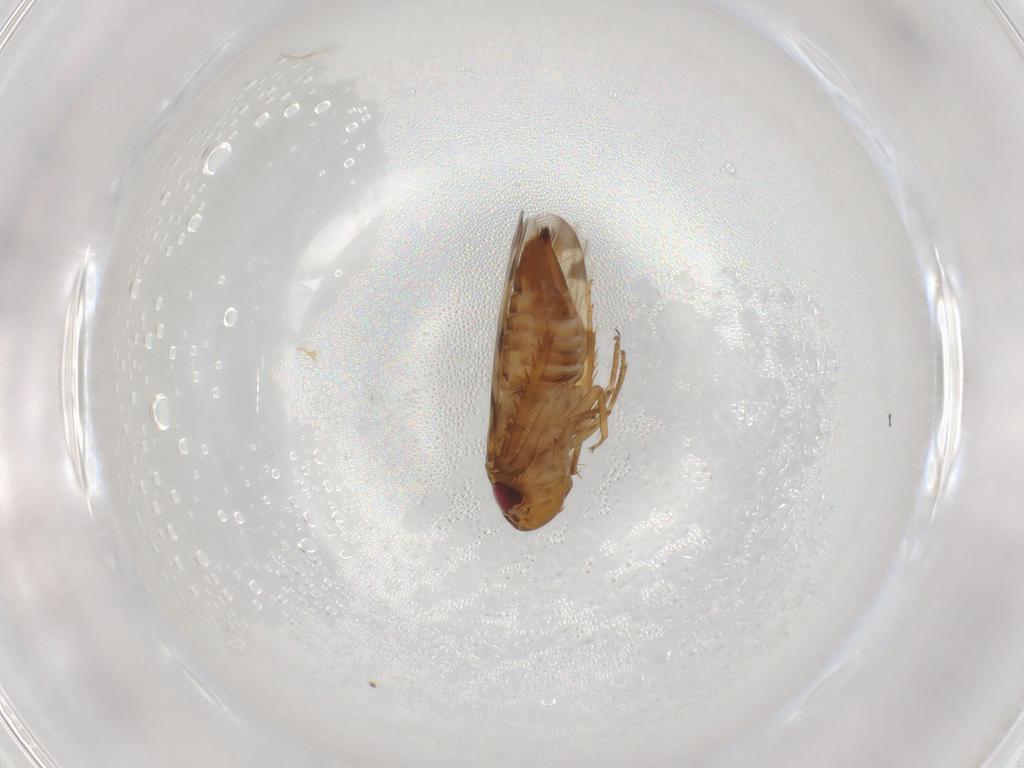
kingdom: Animalia
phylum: Arthropoda
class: Insecta
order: Hemiptera
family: Cicadellidae
